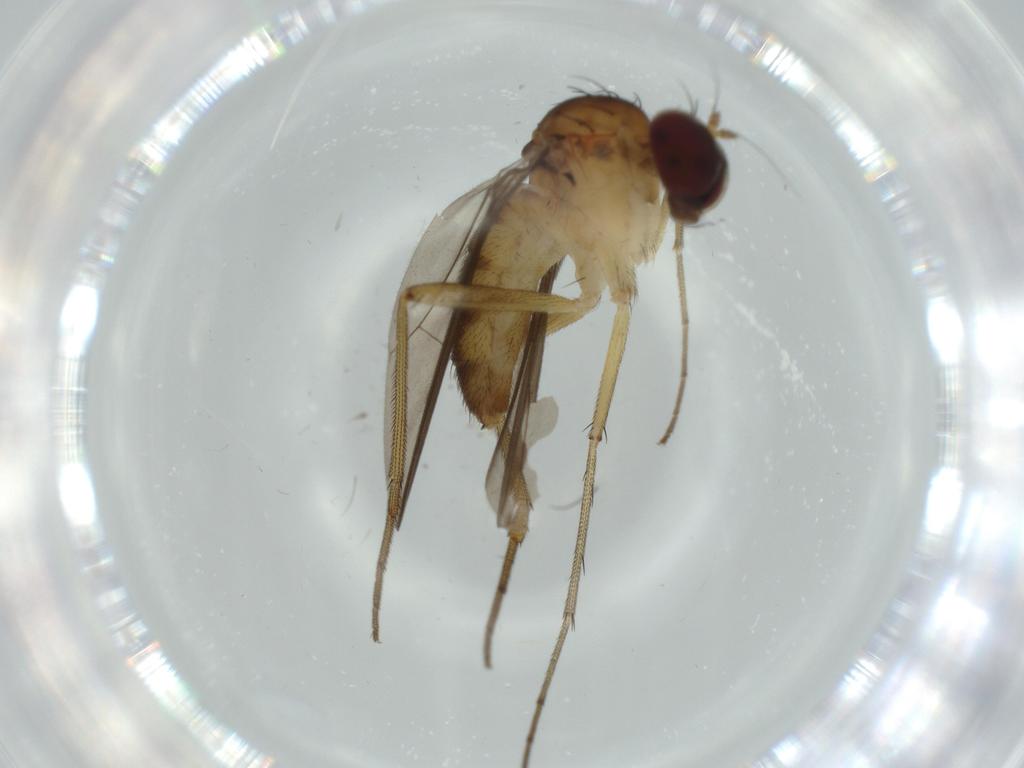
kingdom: Animalia
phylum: Arthropoda
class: Insecta
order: Diptera
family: Dolichopodidae
